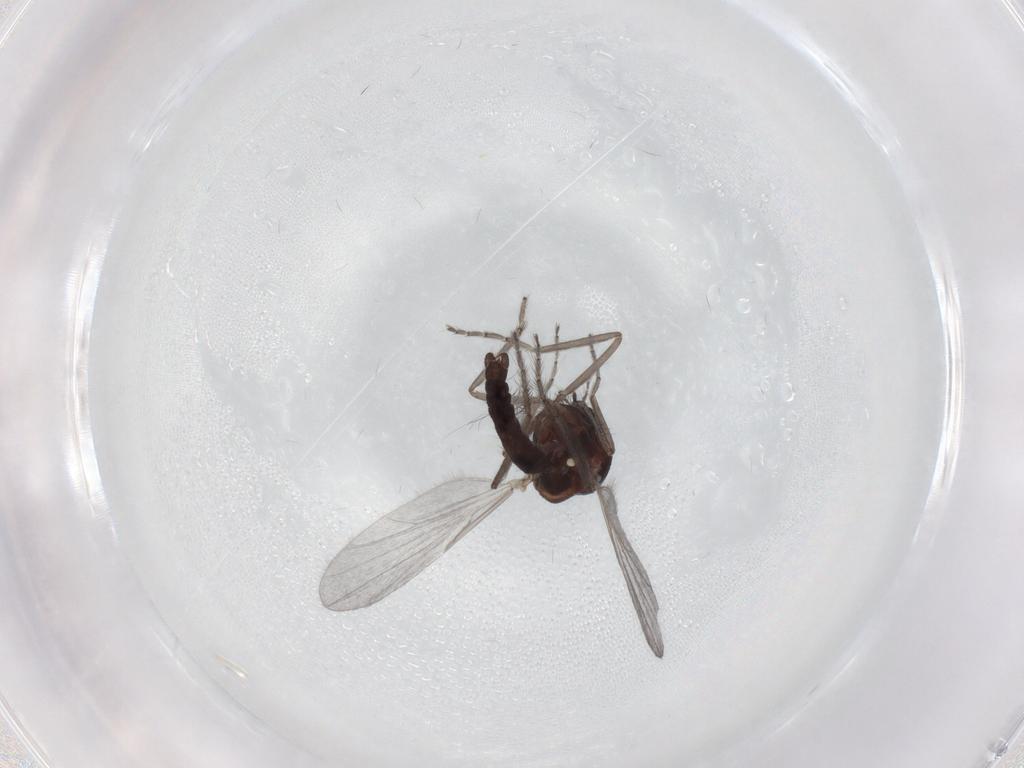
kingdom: Animalia
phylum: Arthropoda
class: Insecta
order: Diptera
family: Ceratopogonidae
